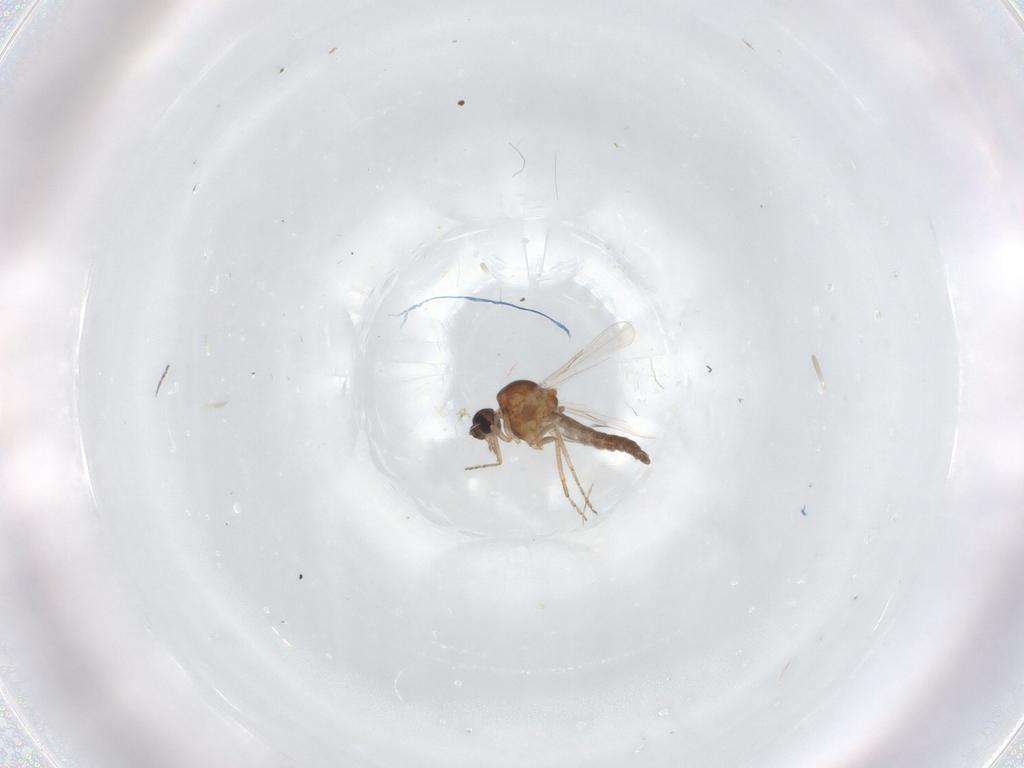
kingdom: Animalia
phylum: Arthropoda
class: Insecta
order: Diptera
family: Ceratopogonidae
